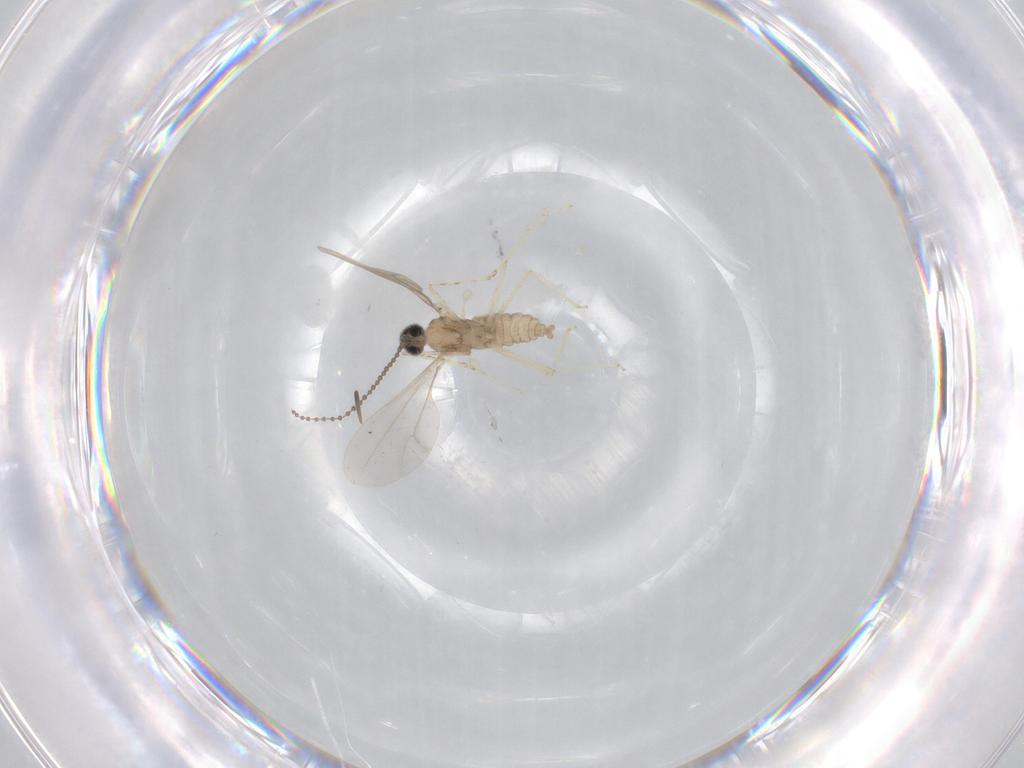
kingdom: Animalia
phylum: Arthropoda
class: Insecta
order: Diptera
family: Cecidomyiidae
